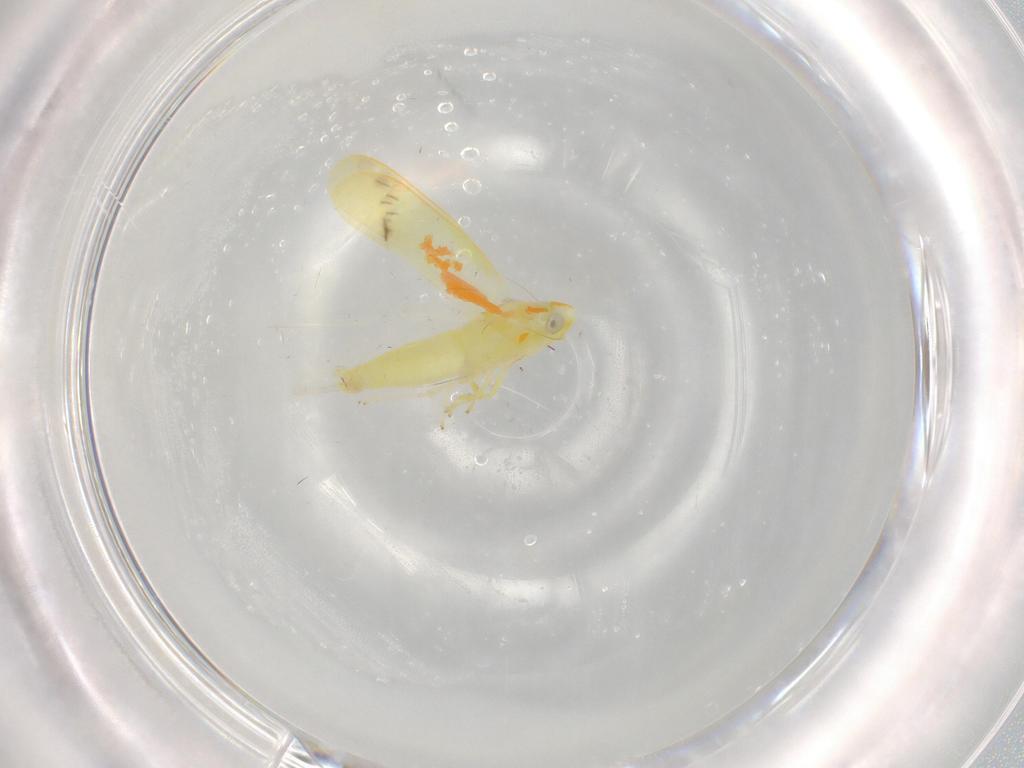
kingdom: Animalia
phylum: Arthropoda
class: Insecta
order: Hemiptera
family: Cicadellidae
